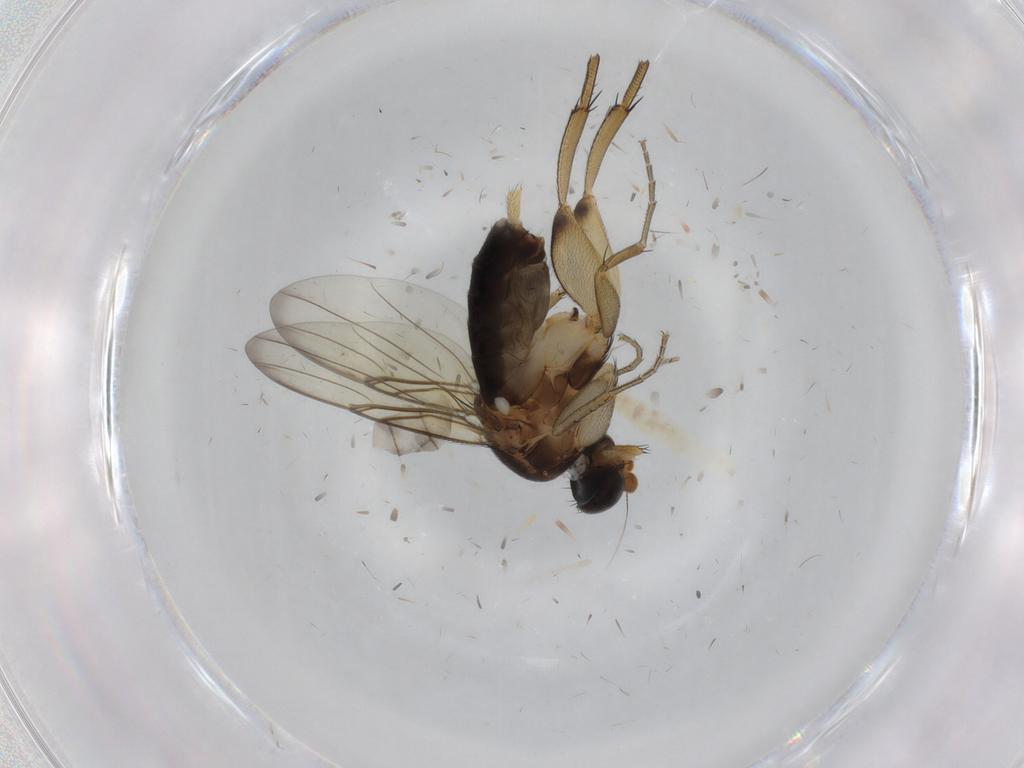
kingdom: Animalia
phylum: Arthropoda
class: Insecta
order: Diptera
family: Phoridae
